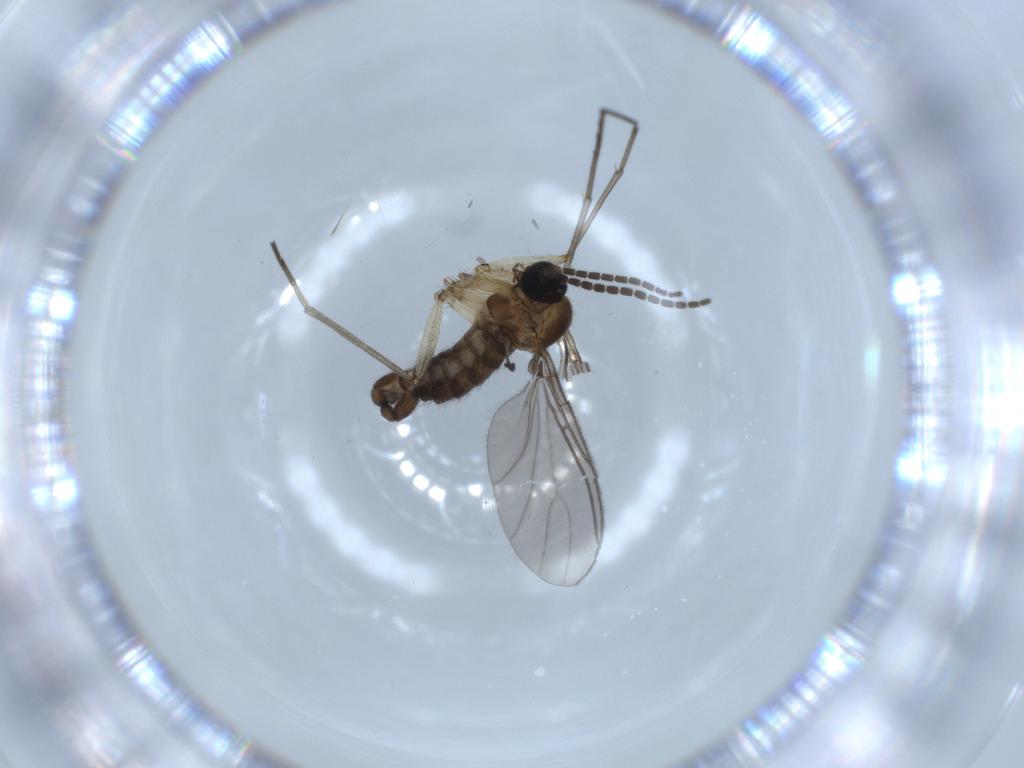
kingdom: Animalia
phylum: Arthropoda
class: Insecta
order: Diptera
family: Sciaridae
